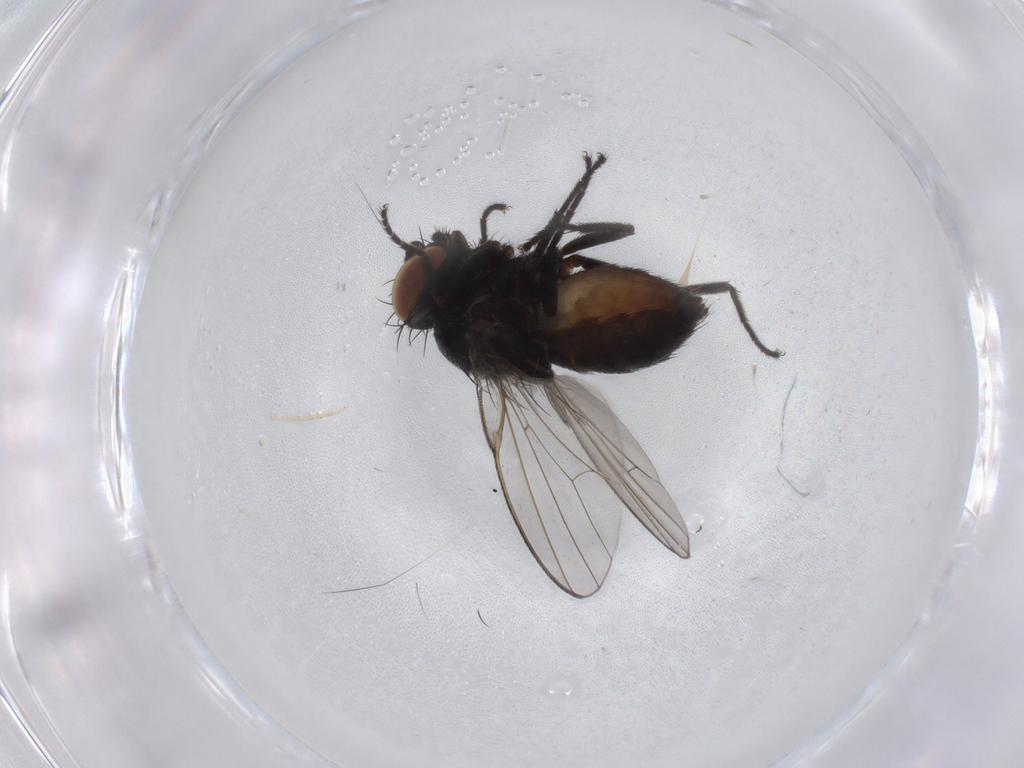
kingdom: Animalia
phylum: Arthropoda
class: Insecta
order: Diptera
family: Milichiidae
